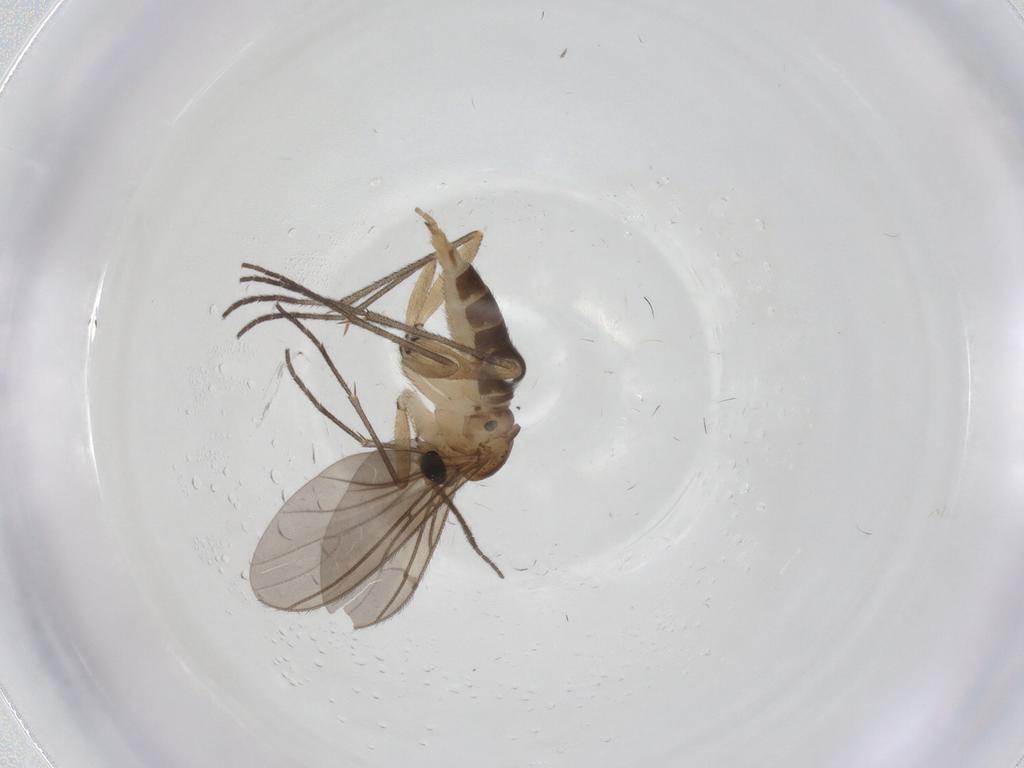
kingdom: Animalia
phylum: Arthropoda
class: Insecta
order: Diptera
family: Sciaridae
